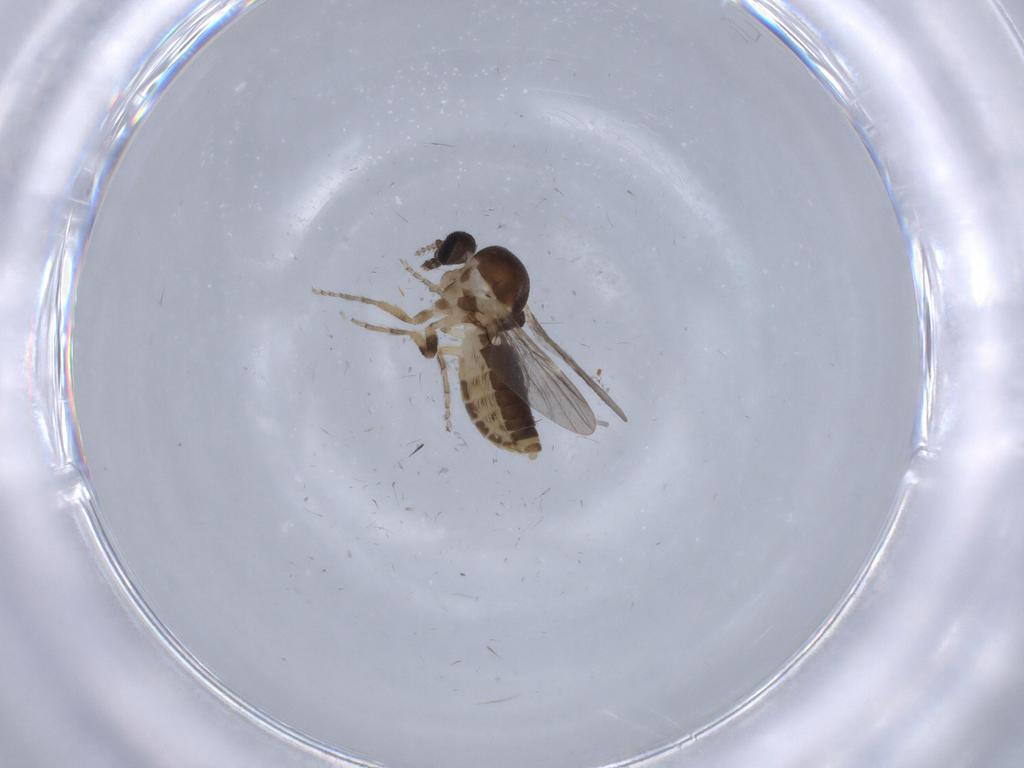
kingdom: Animalia
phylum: Arthropoda
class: Insecta
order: Diptera
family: Ceratopogonidae
